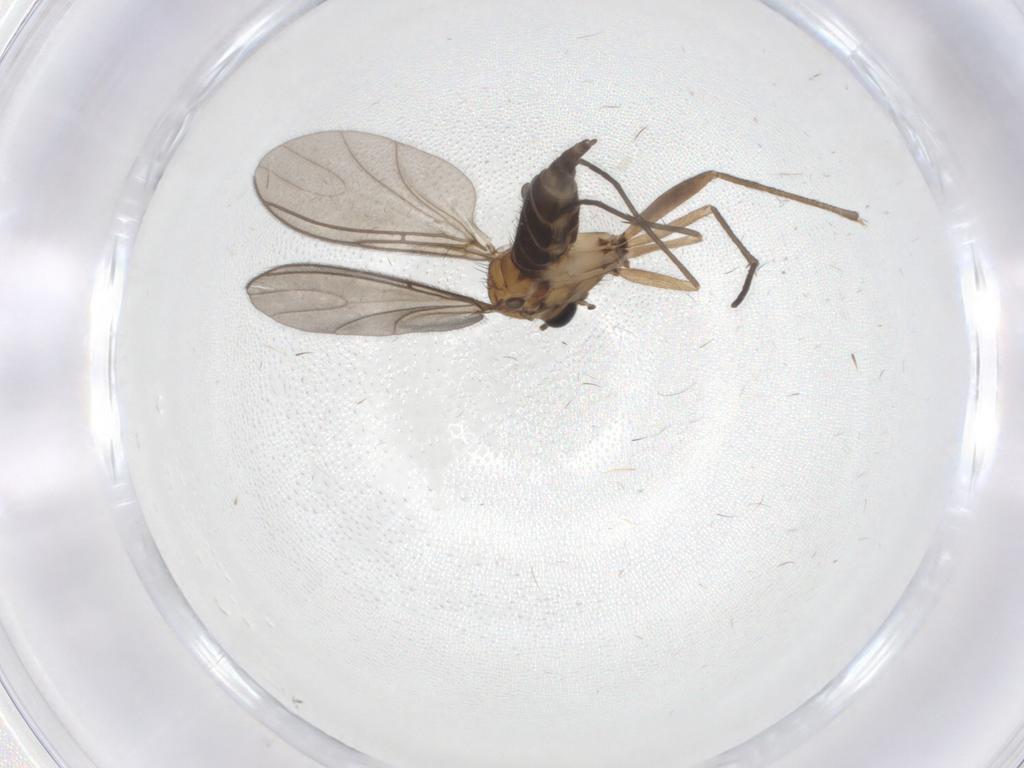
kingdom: Animalia
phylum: Arthropoda
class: Insecta
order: Diptera
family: Sciaridae
